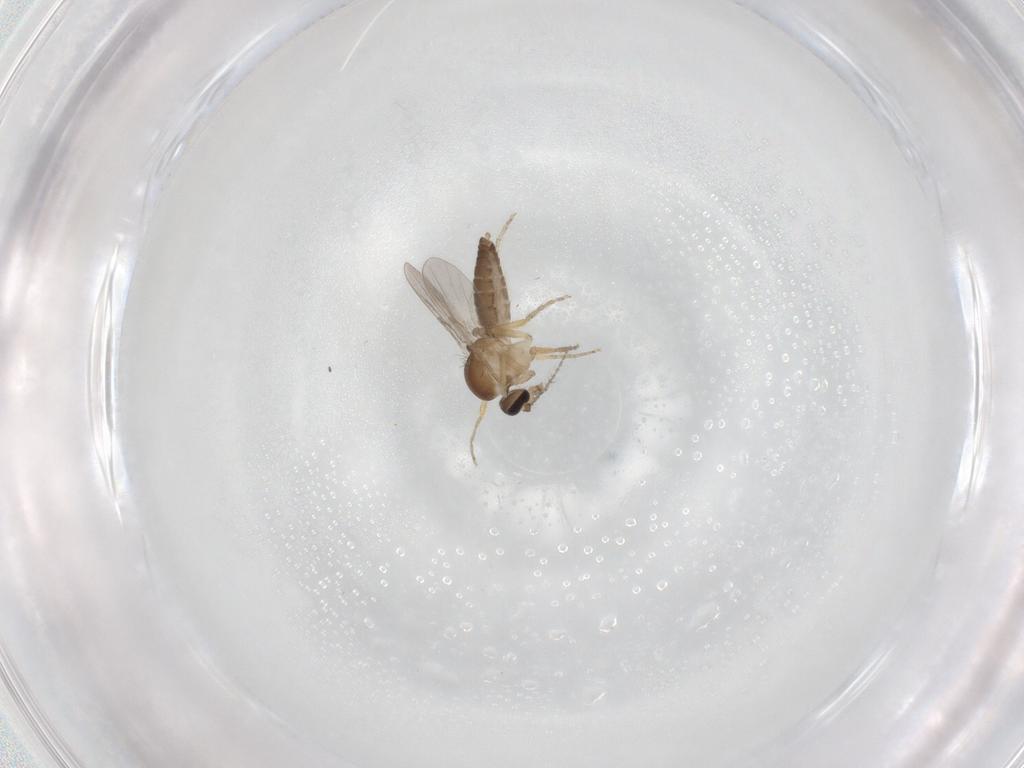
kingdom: Animalia
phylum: Arthropoda
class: Insecta
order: Diptera
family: Ceratopogonidae
